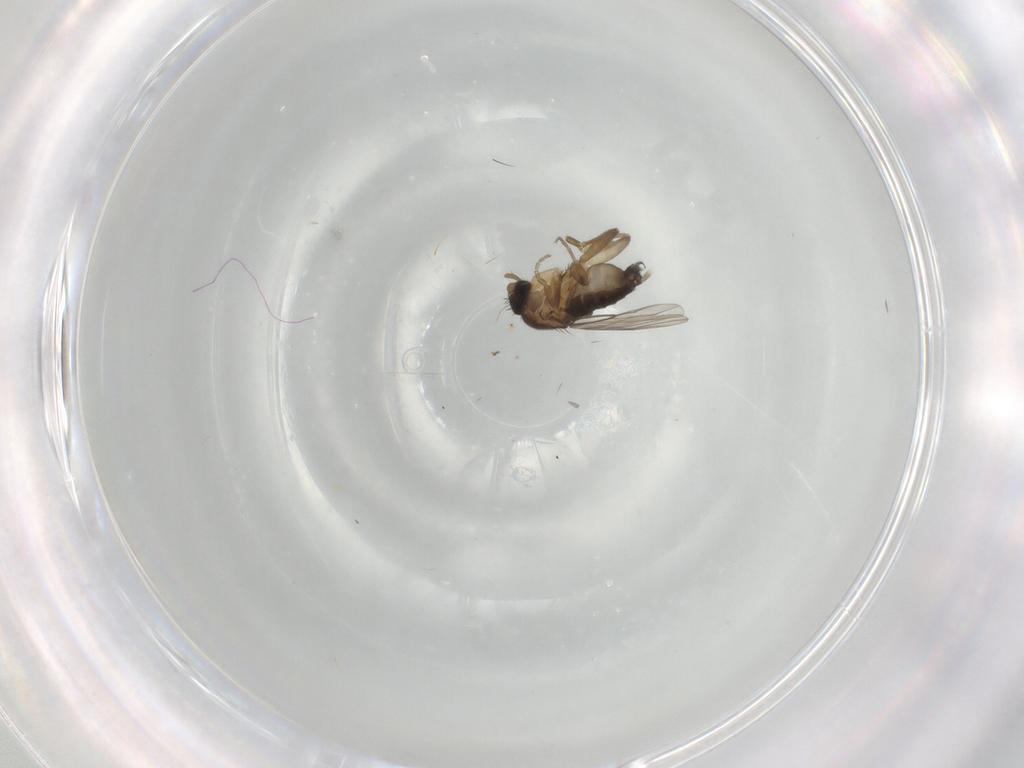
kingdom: Animalia
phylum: Arthropoda
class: Insecta
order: Diptera
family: Phoridae
